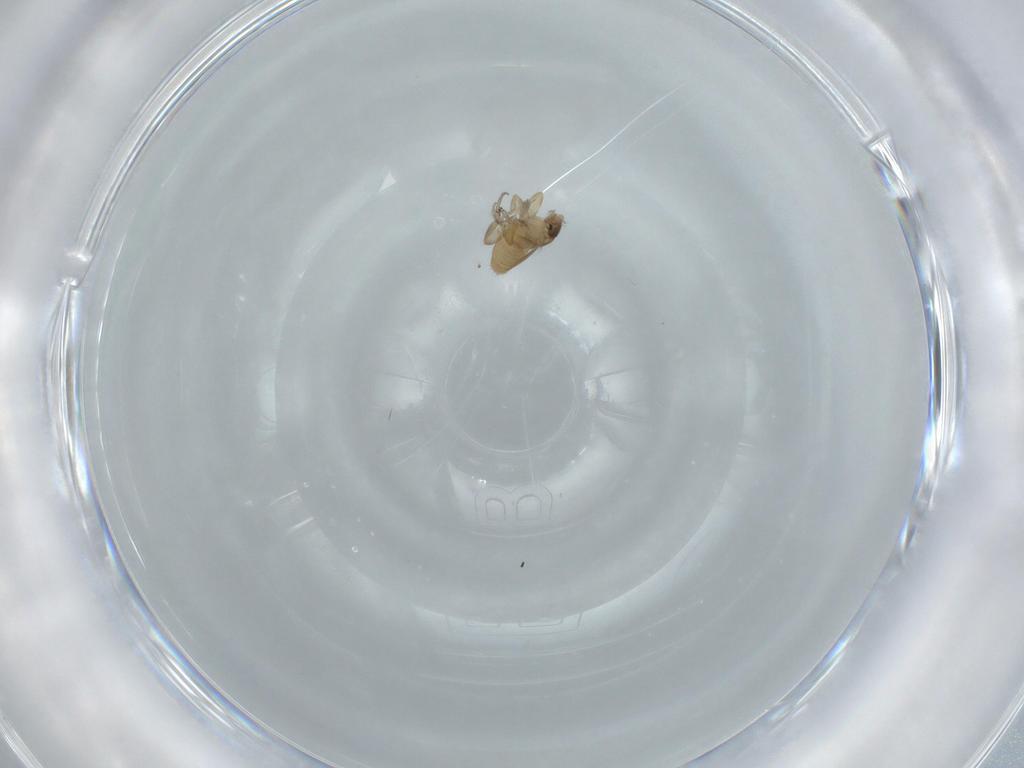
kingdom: Animalia
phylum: Arthropoda
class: Insecta
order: Diptera
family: Phoridae
